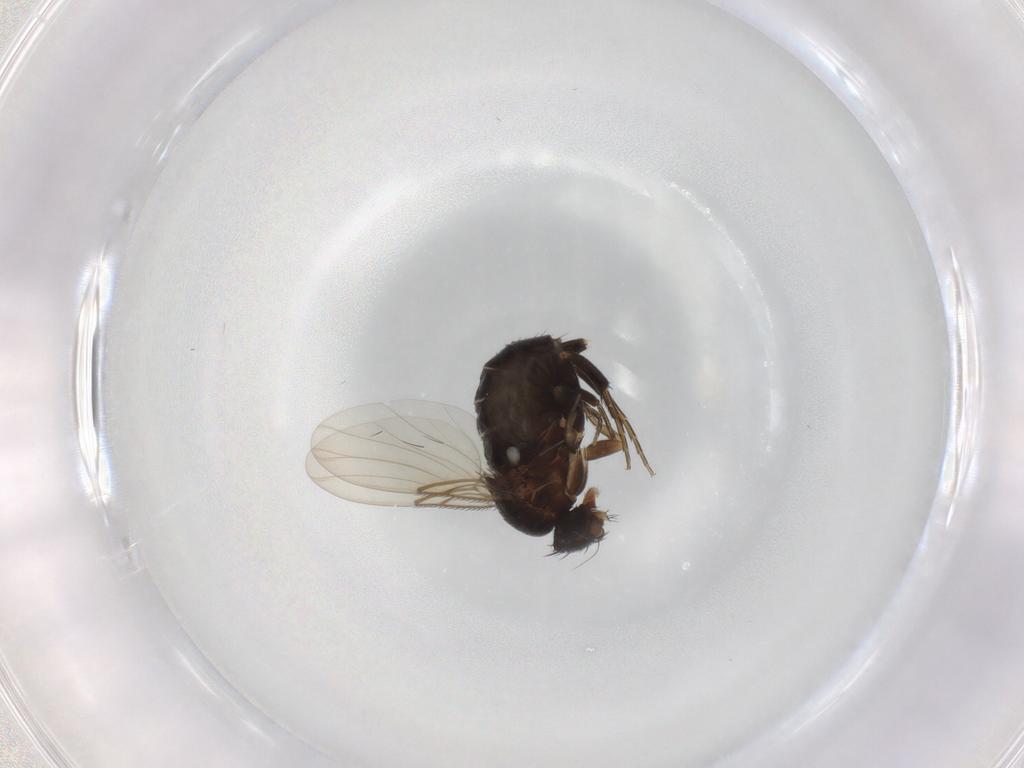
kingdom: Animalia
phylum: Arthropoda
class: Insecta
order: Diptera
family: Phoridae
